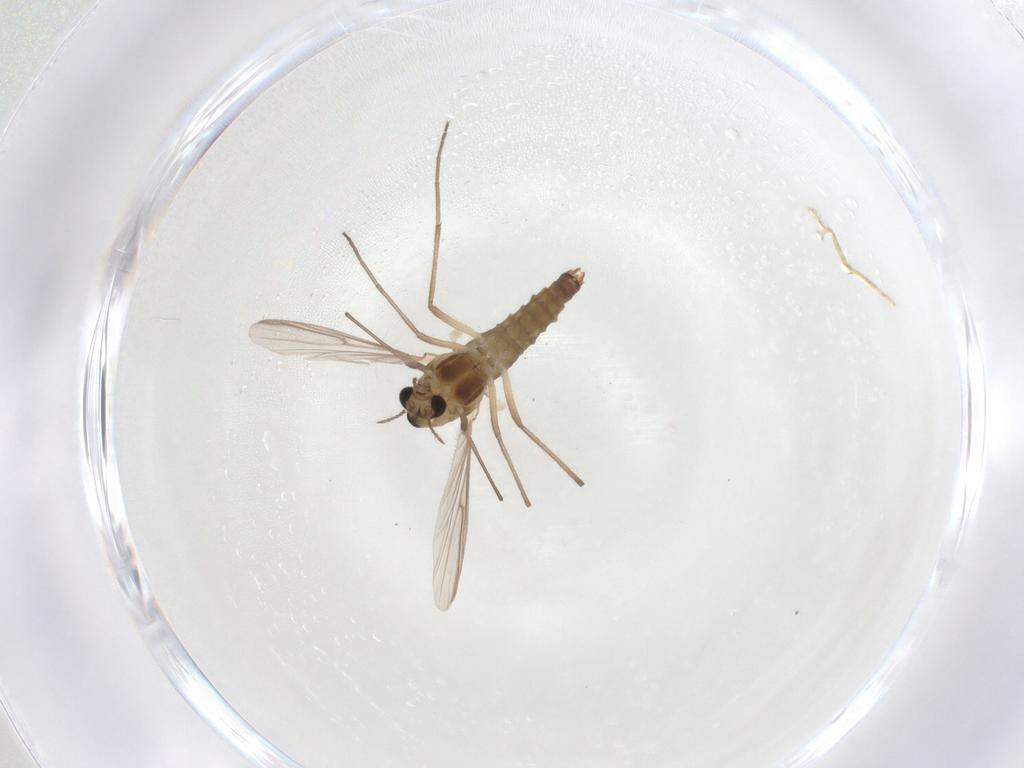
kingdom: Animalia
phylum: Arthropoda
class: Insecta
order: Diptera
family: Chironomidae
